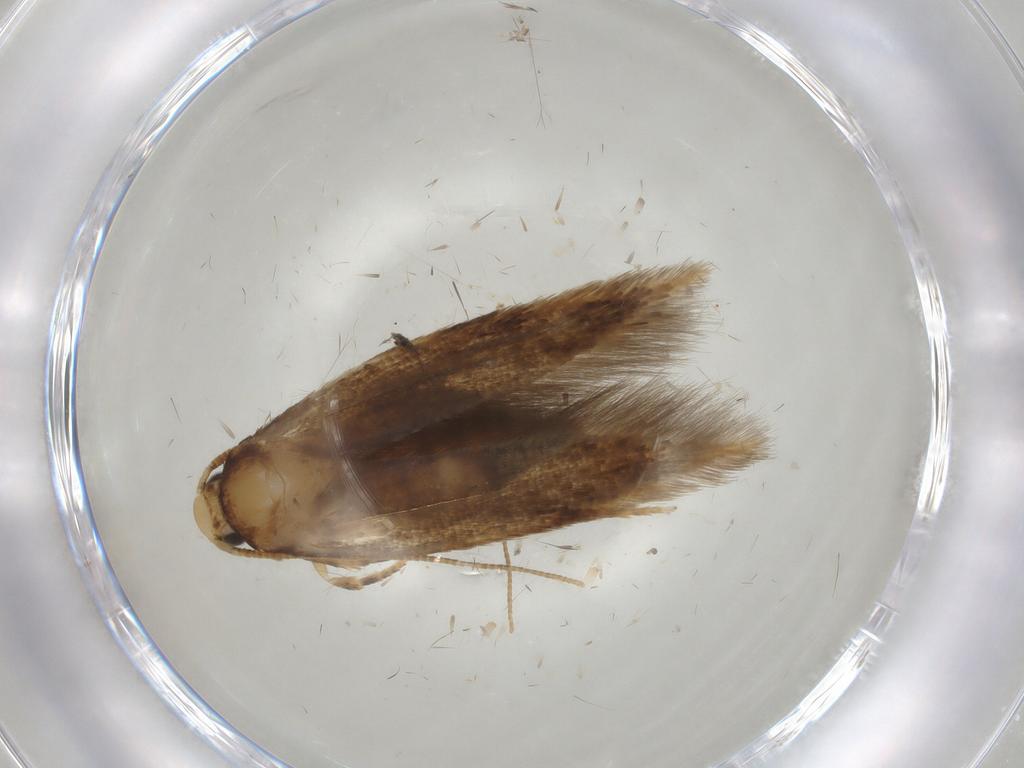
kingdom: Animalia
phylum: Arthropoda
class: Insecta
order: Lepidoptera
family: Tineidae
